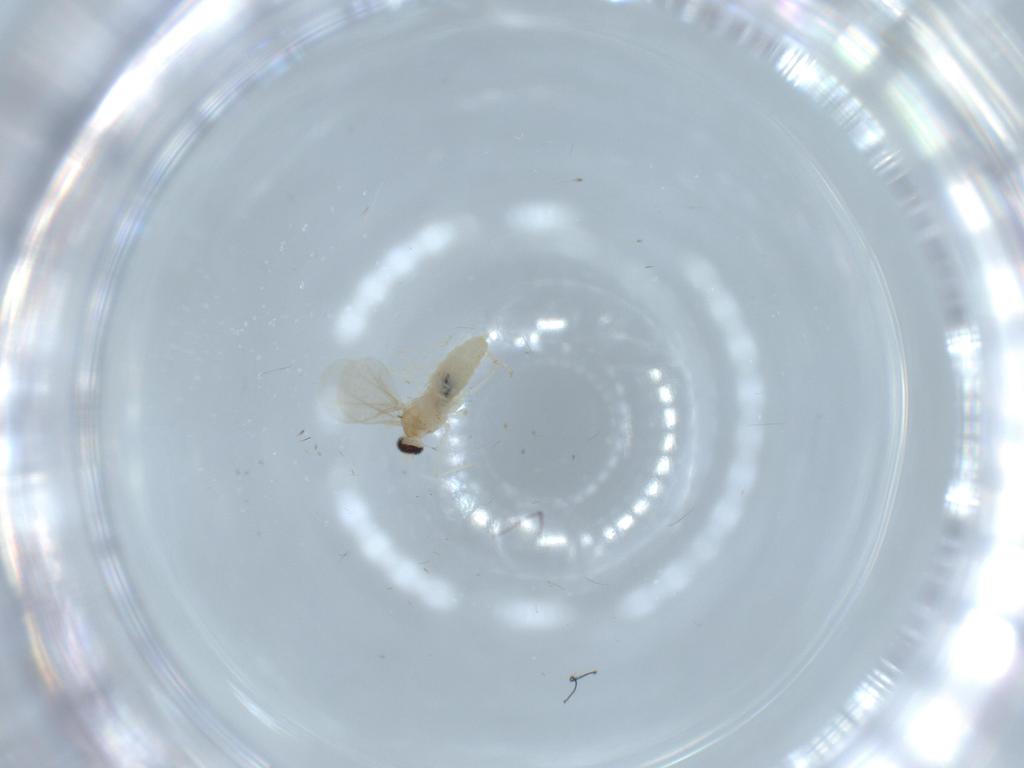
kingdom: Animalia
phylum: Arthropoda
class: Insecta
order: Diptera
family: Cecidomyiidae
